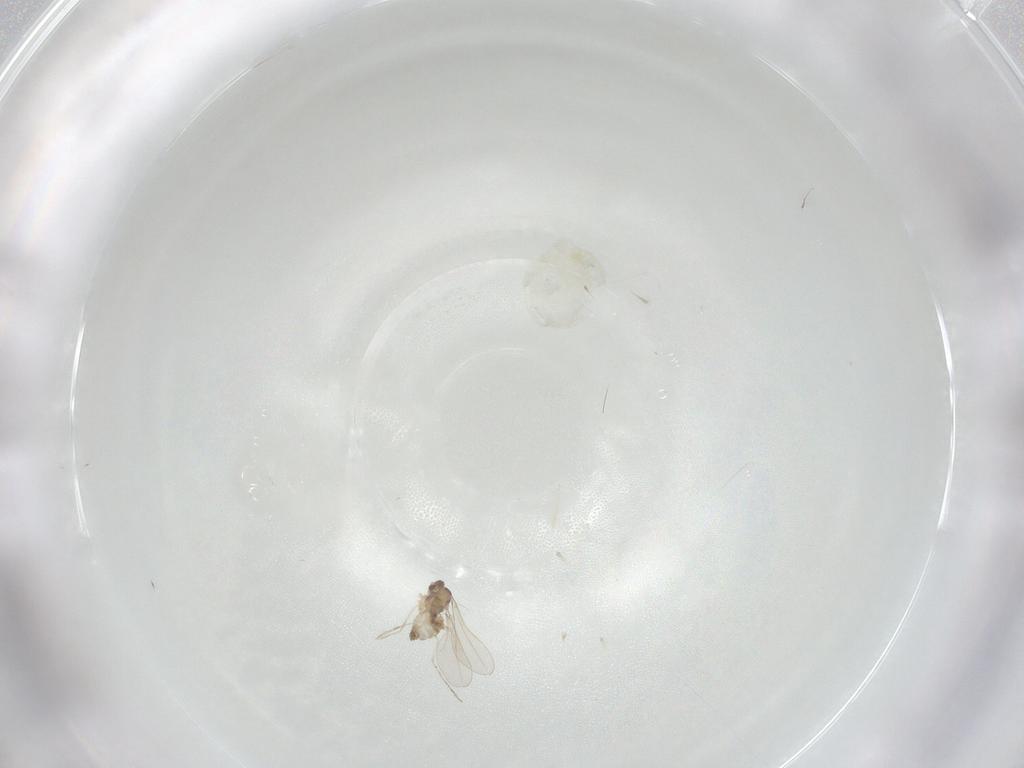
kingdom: Animalia
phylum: Arthropoda
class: Insecta
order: Diptera
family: Cecidomyiidae
